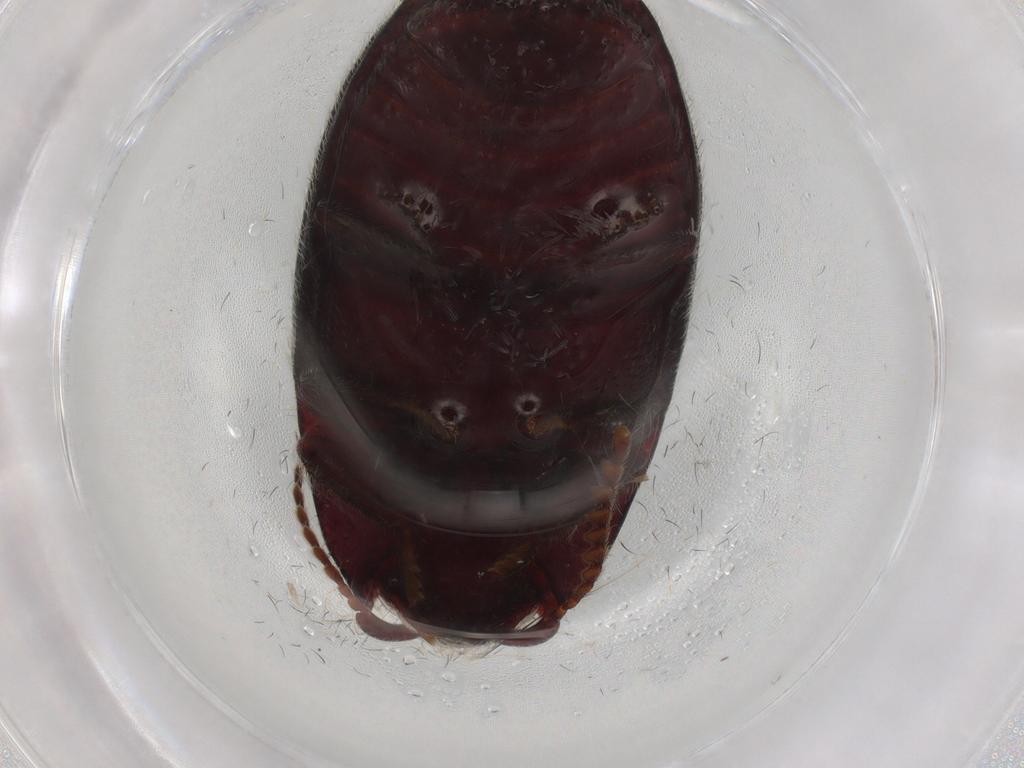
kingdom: Animalia
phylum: Arthropoda
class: Insecta
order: Coleoptera
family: Elateridae
